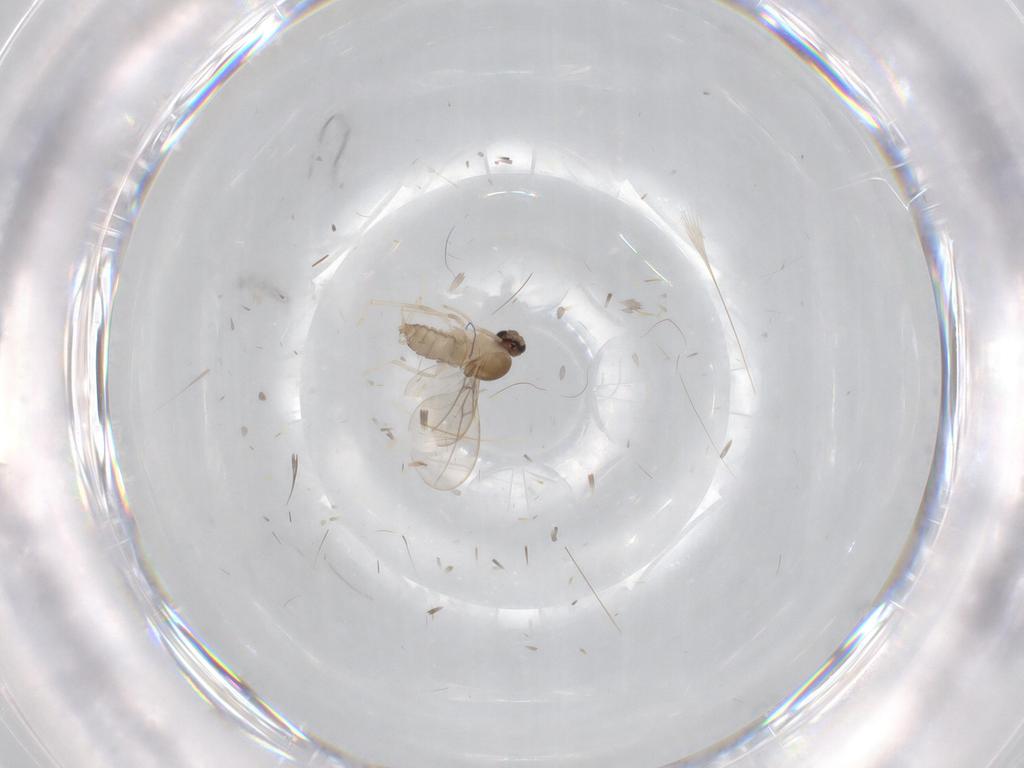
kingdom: Animalia
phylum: Arthropoda
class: Insecta
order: Diptera
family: Cecidomyiidae
